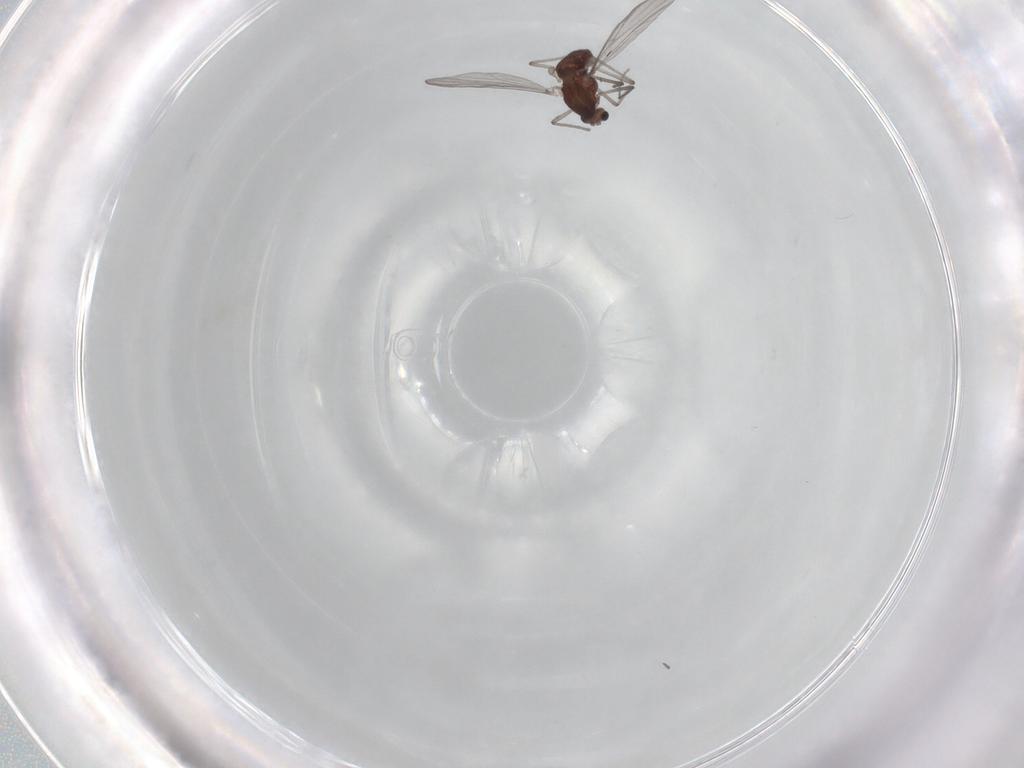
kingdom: Animalia
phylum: Arthropoda
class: Insecta
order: Diptera
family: Chironomidae
